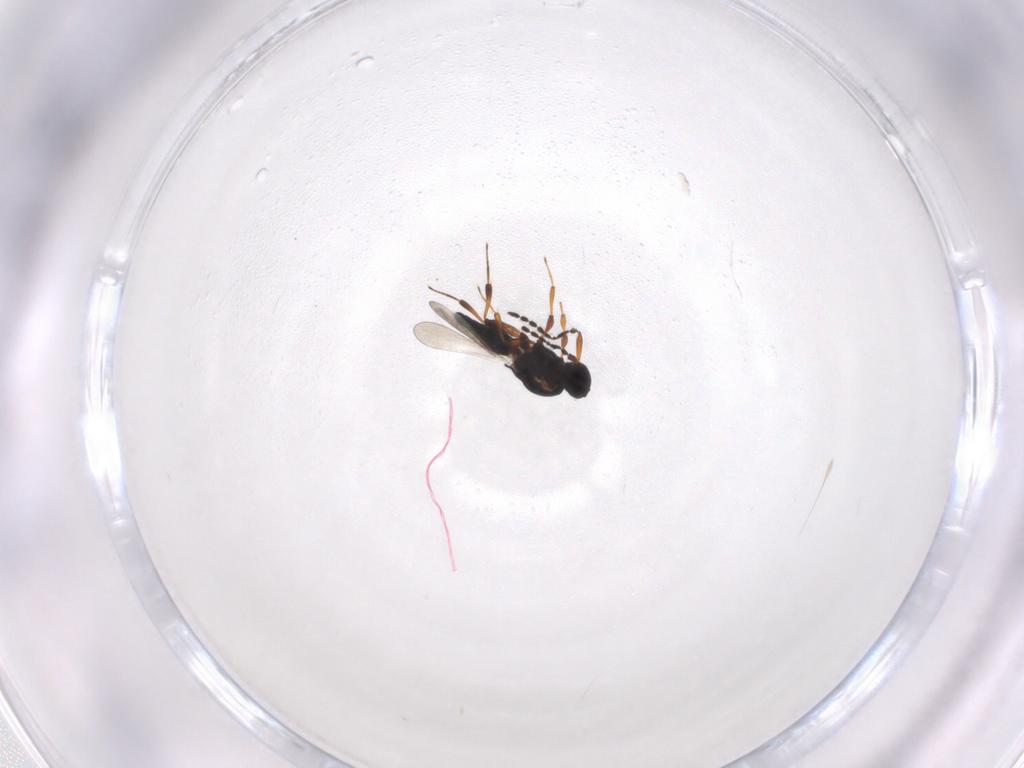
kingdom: Animalia
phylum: Arthropoda
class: Insecta
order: Hymenoptera
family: Platygastridae
